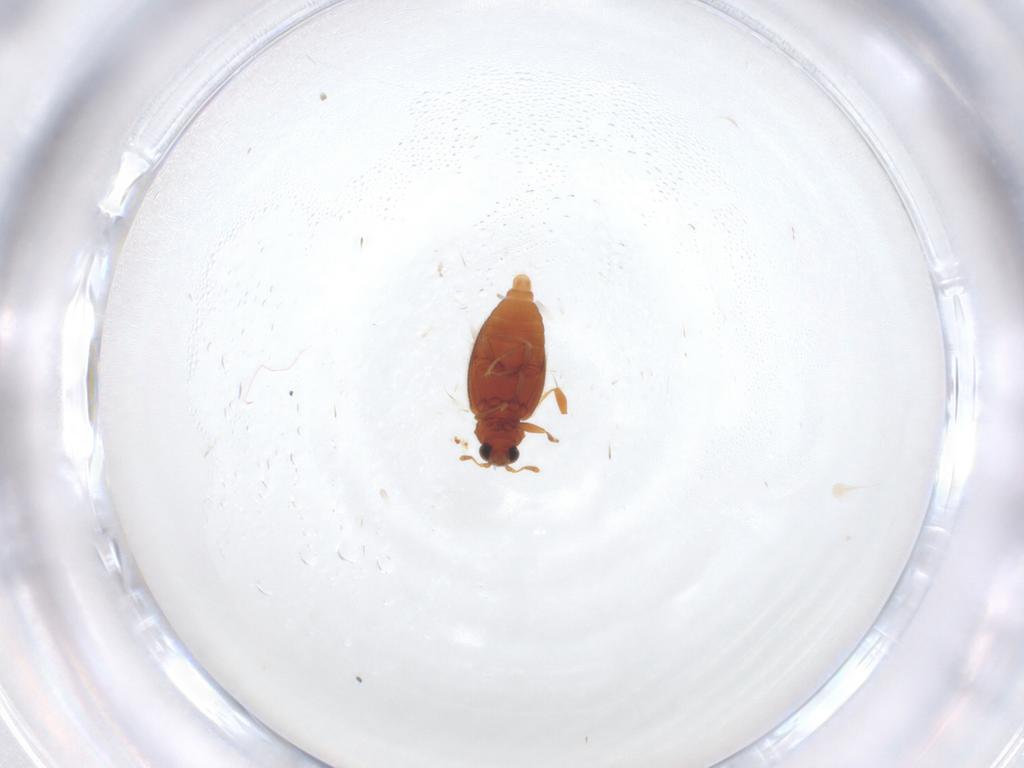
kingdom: Animalia
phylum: Arthropoda
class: Insecta
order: Coleoptera
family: Latridiidae
